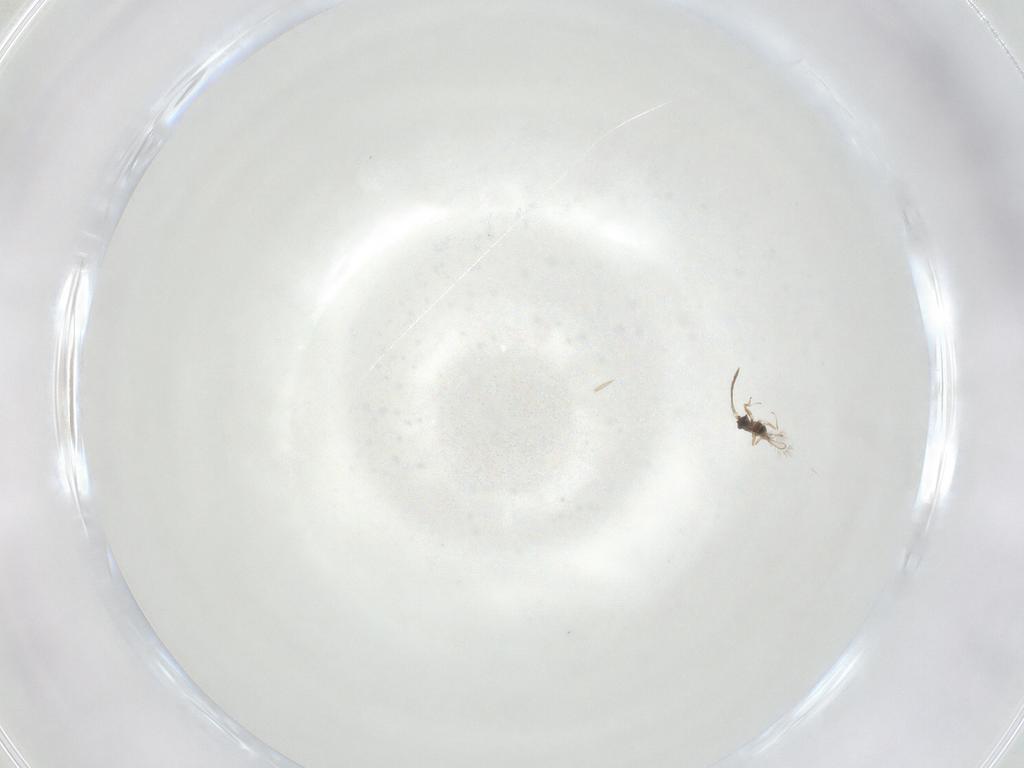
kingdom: Animalia
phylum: Arthropoda
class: Insecta
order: Hymenoptera
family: Mymaridae
